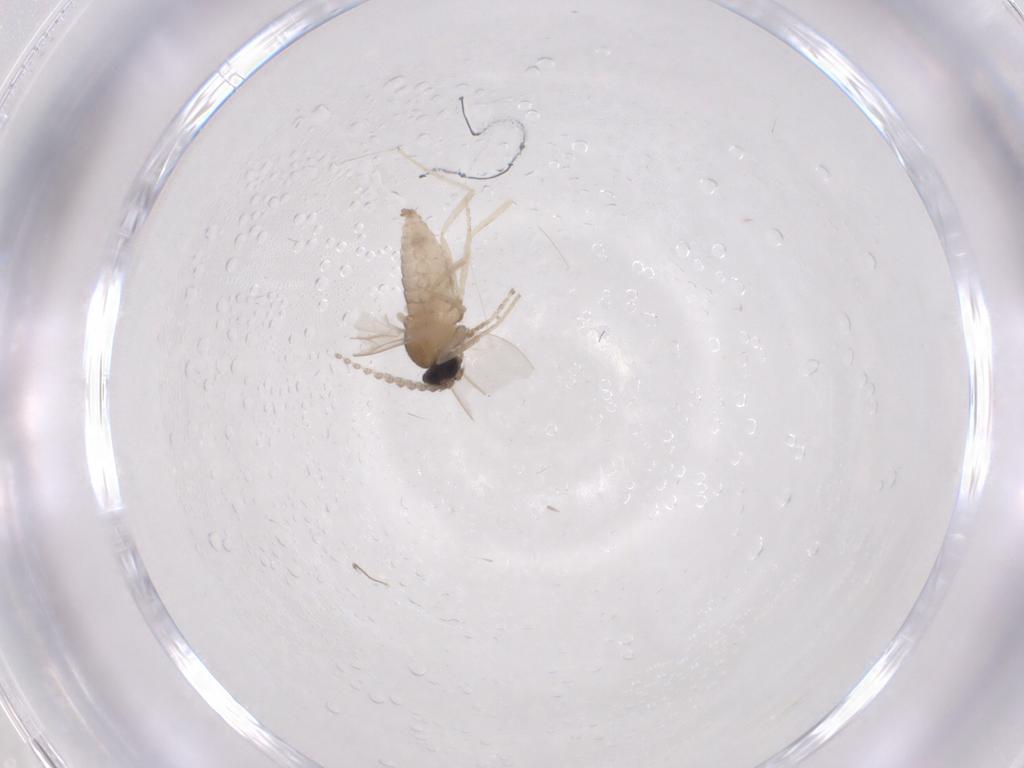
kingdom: Animalia
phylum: Arthropoda
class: Insecta
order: Diptera
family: Cecidomyiidae
